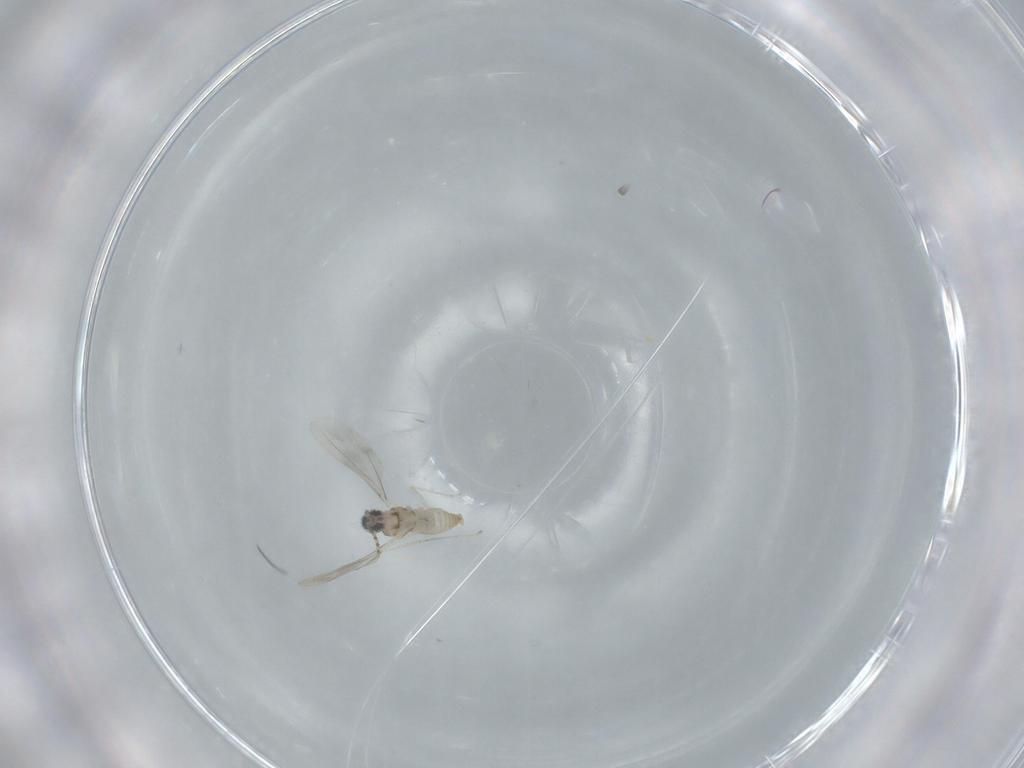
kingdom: Animalia
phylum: Arthropoda
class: Insecta
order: Diptera
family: Cecidomyiidae
